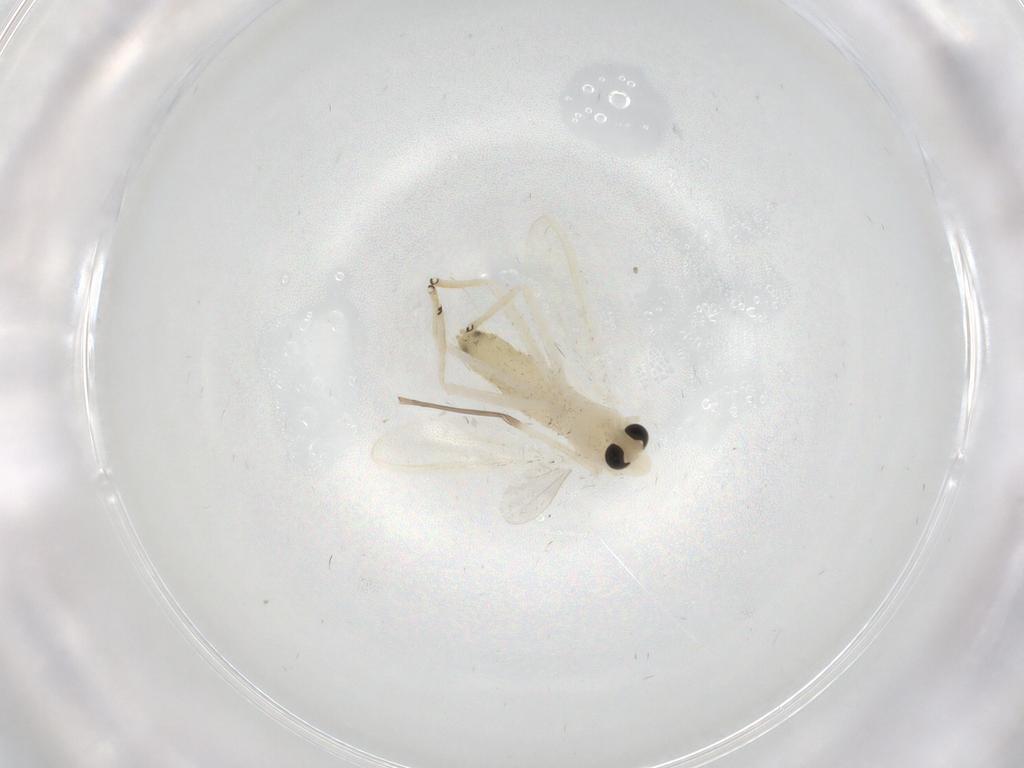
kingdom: Animalia
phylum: Arthropoda
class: Insecta
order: Diptera
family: Chironomidae
